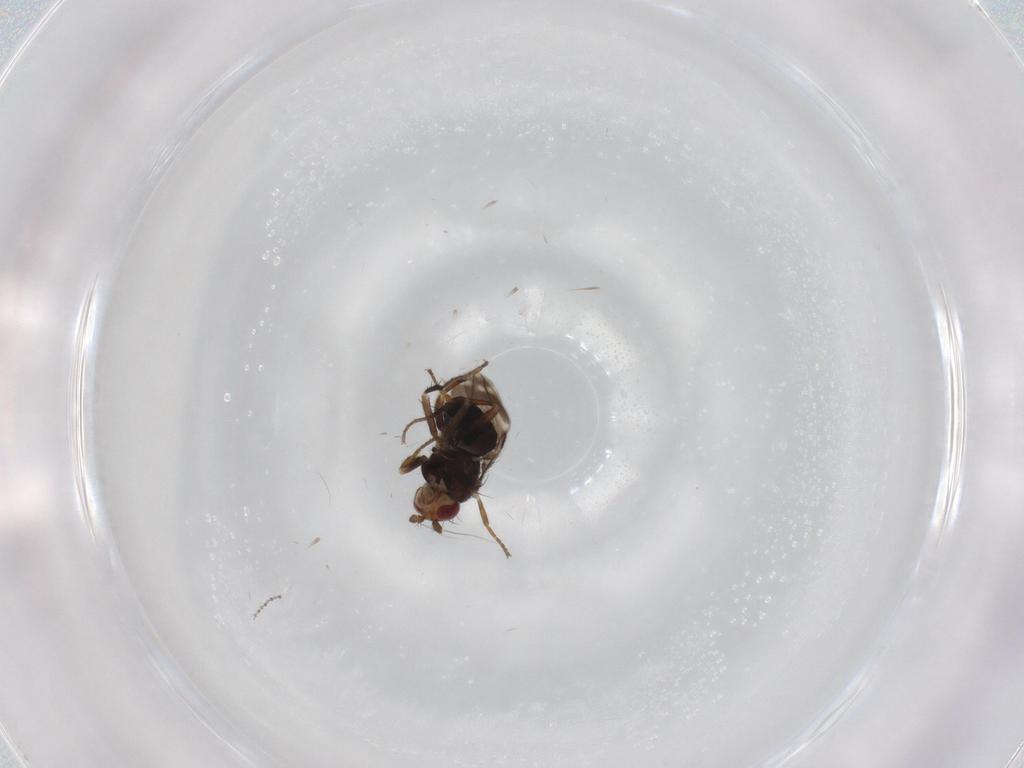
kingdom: Animalia
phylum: Arthropoda
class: Insecta
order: Diptera
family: Sphaeroceridae
